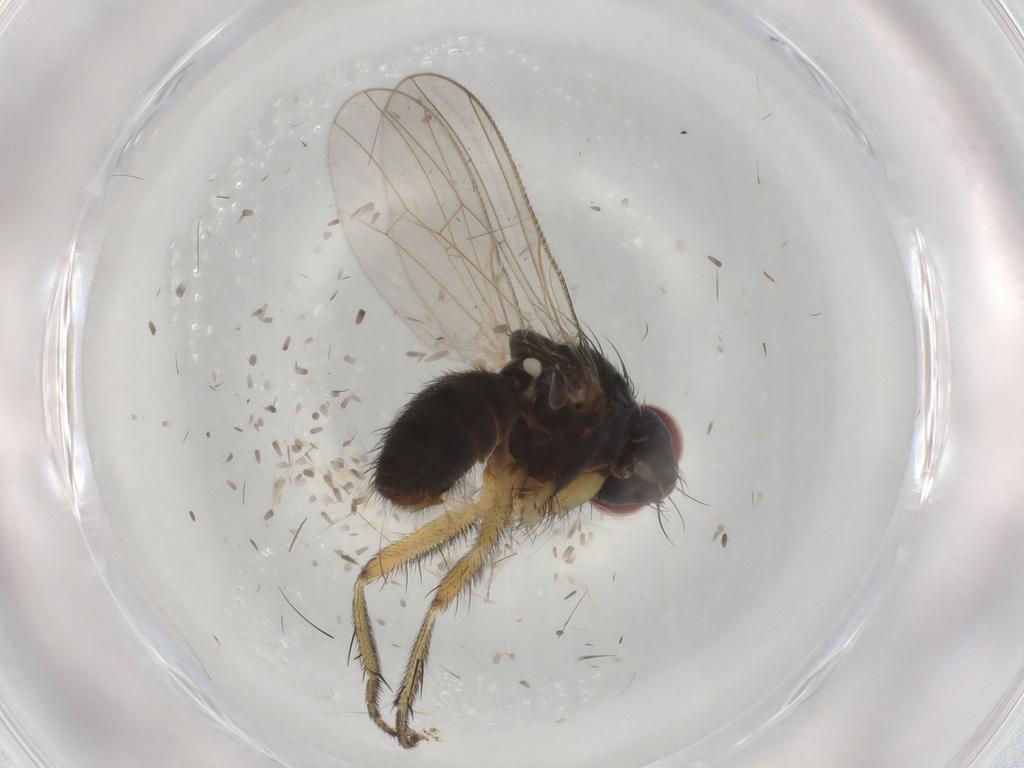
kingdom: Animalia
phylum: Arthropoda
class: Insecta
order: Diptera
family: Muscidae
